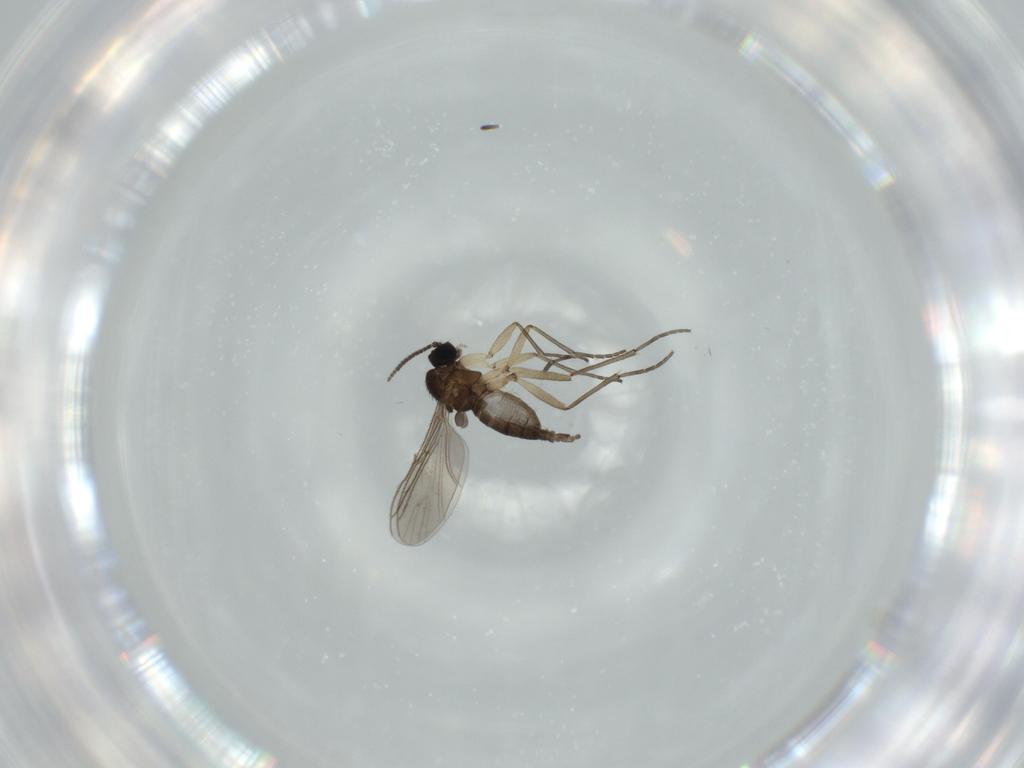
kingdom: Animalia
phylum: Arthropoda
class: Insecta
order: Diptera
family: Sciaridae
